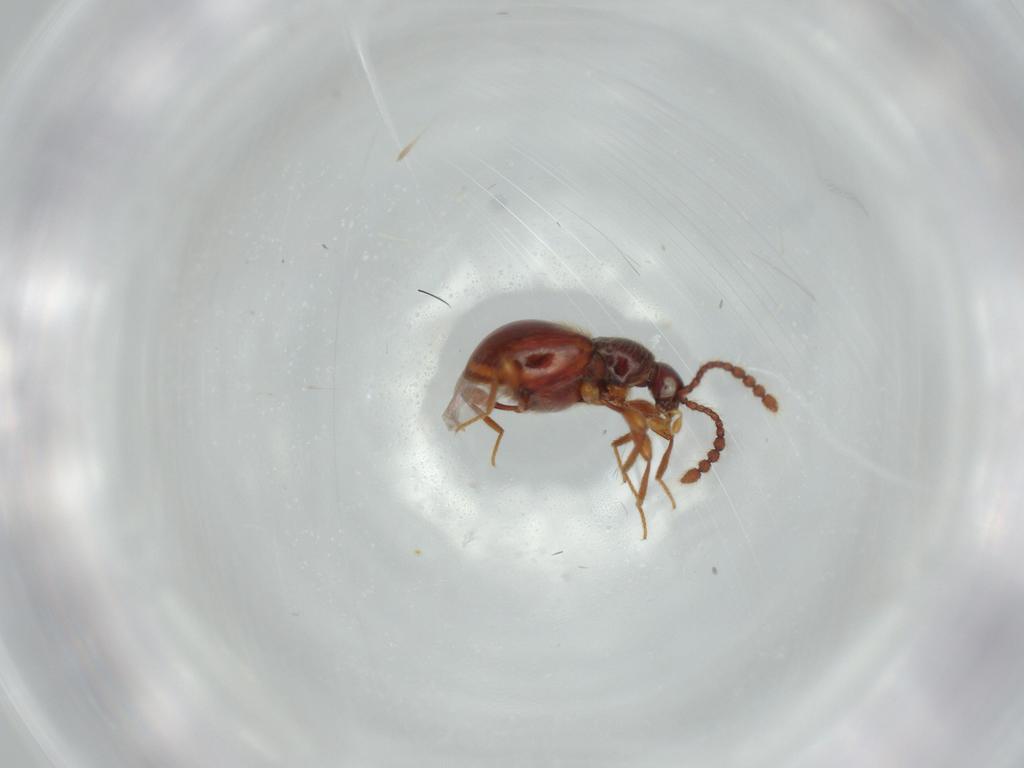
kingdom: Animalia
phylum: Arthropoda
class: Insecta
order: Coleoptera
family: Staphylinidae
